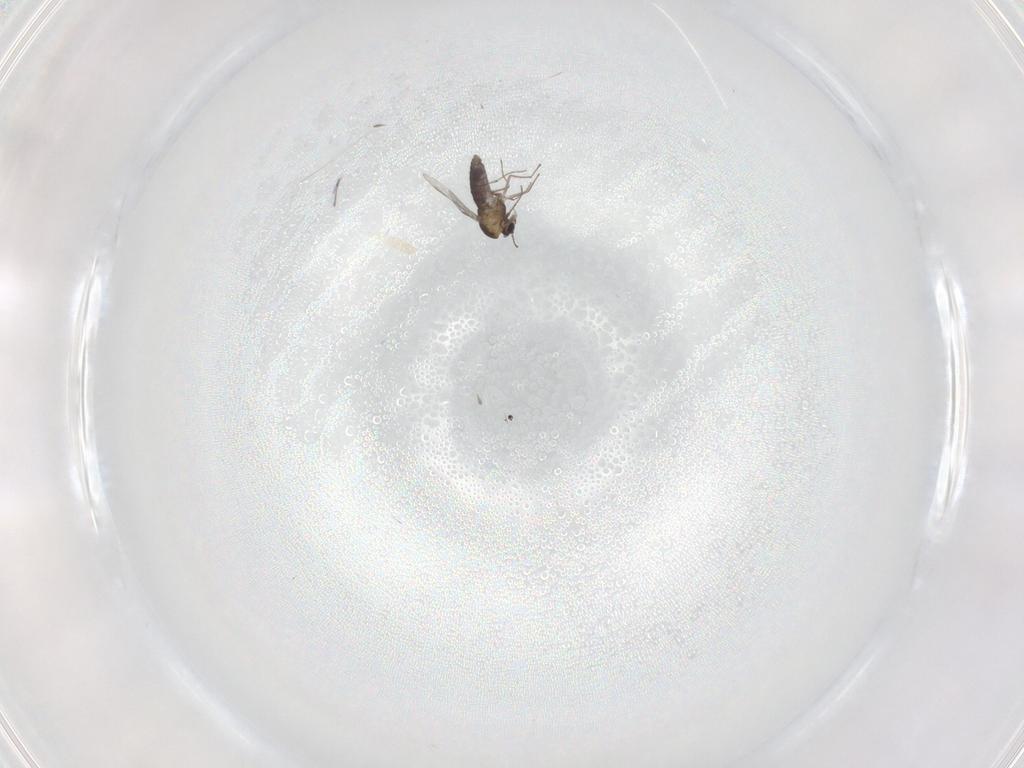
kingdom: Animalia
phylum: Arthropoda
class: Insecta
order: Diptera
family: Chironomidae
